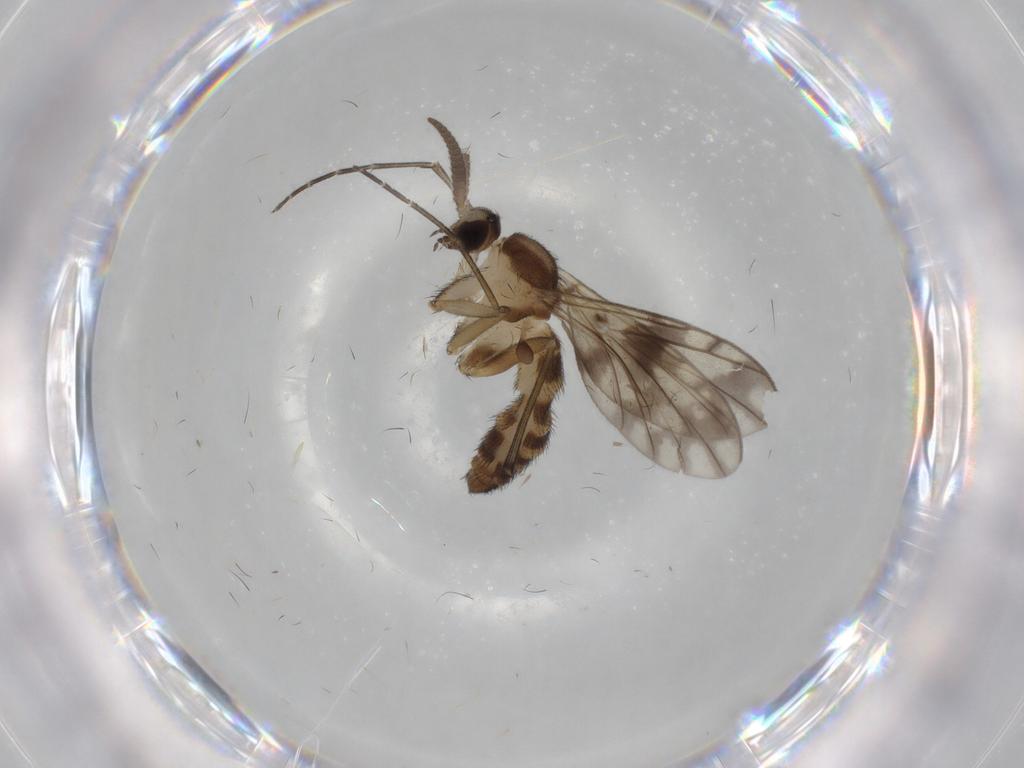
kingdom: Animalia
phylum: Arthropoda
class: Insecta
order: Diptera
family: Keroplatidae
